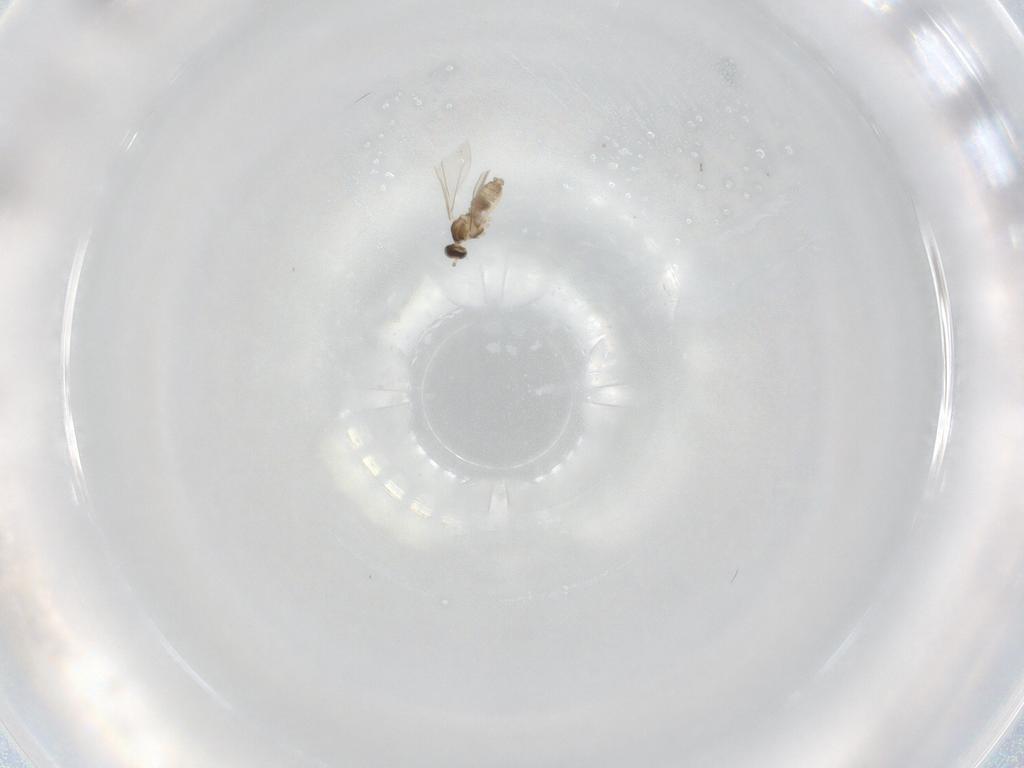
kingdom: Animalia
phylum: Arthropoda
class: Insecta
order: Diptera
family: Cecidomyiidae
